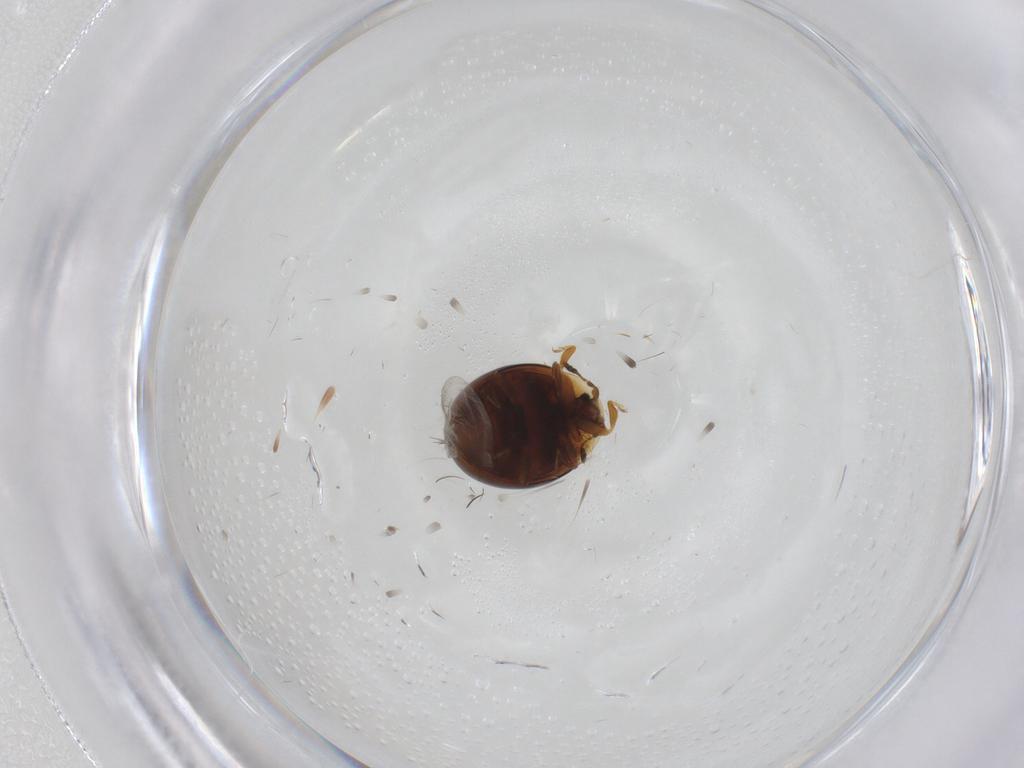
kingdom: Animalia
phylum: Arthropoda
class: Insecta
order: Coleoptera
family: Corylophidae
